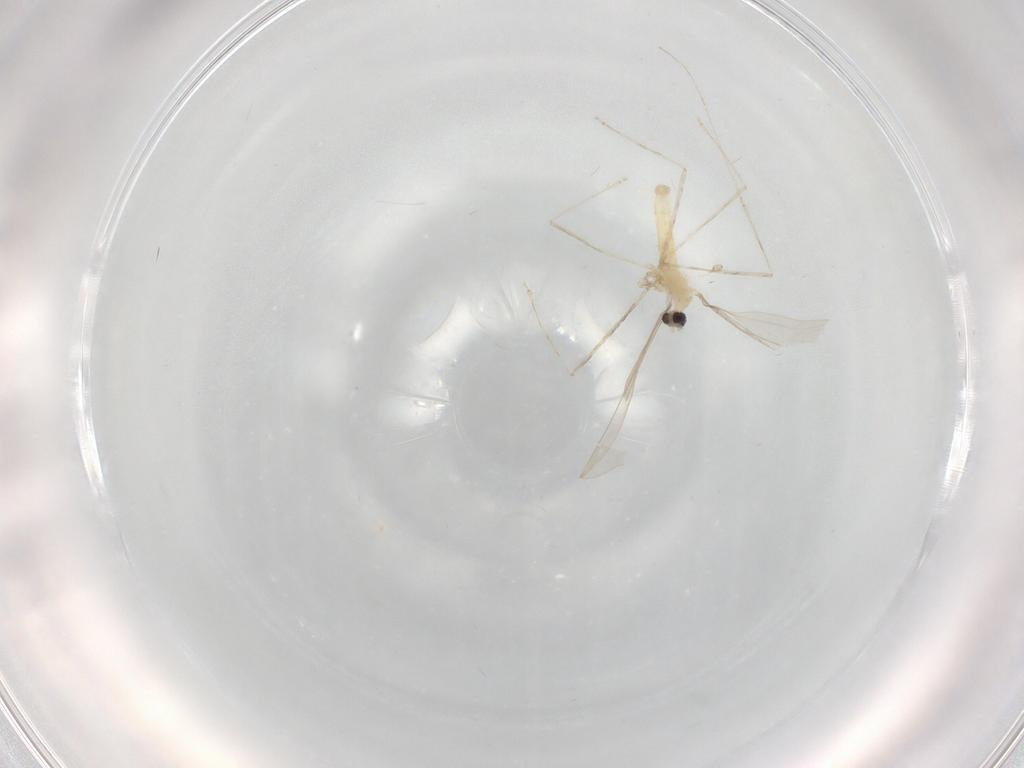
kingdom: Animalia
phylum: Arthropoda
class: Insecta
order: Diptera
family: Cecidomyiidae
